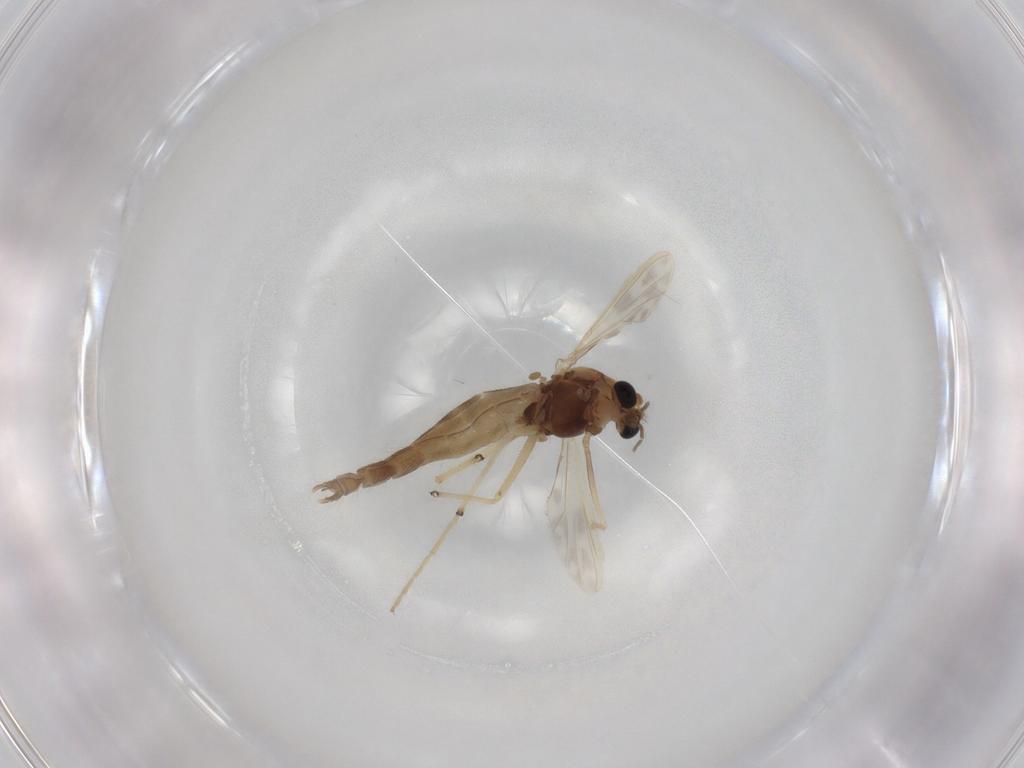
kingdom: Animalia
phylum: Arthropoda
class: Insecta
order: Diptera
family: Chironomidae
